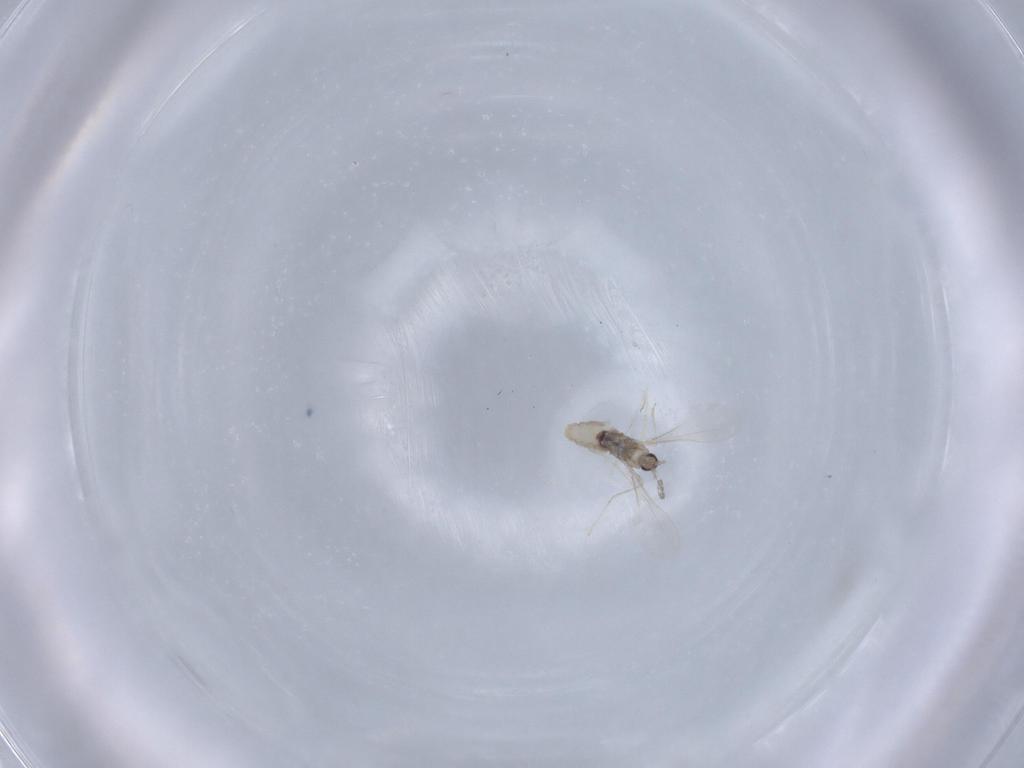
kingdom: Animalia
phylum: Arthropoda
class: Insecta
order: Diptera
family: Cecidomyiidae
